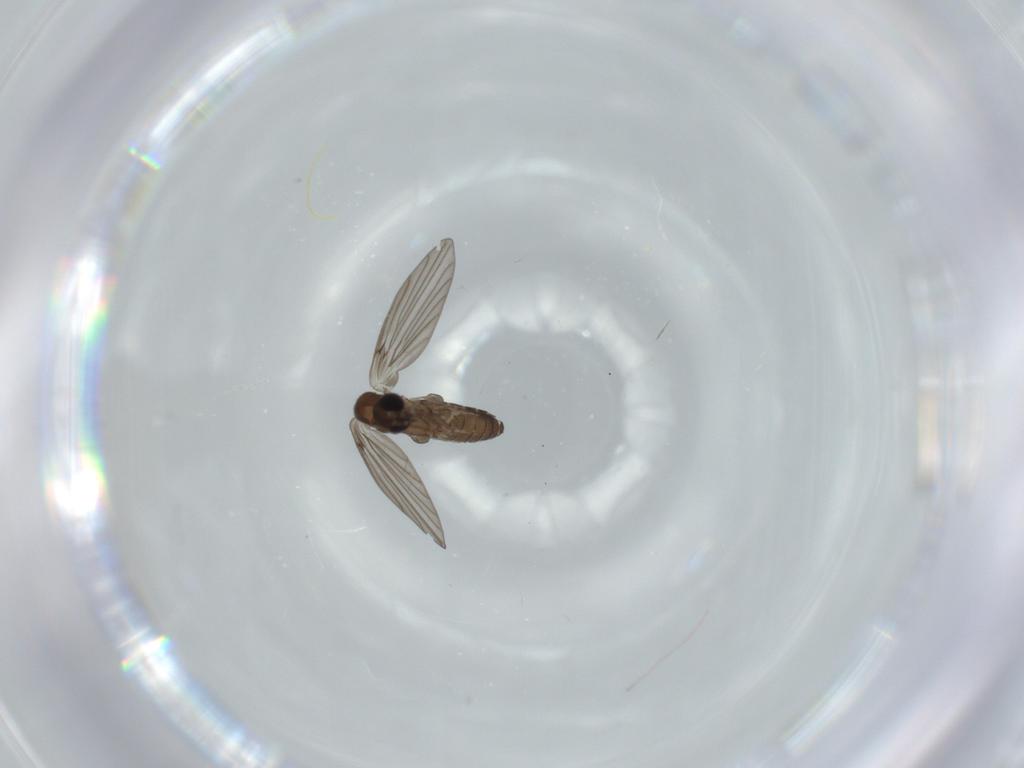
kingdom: Animalia
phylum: Arthropoda
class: Insecta
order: Diptera
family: Psychodidae
